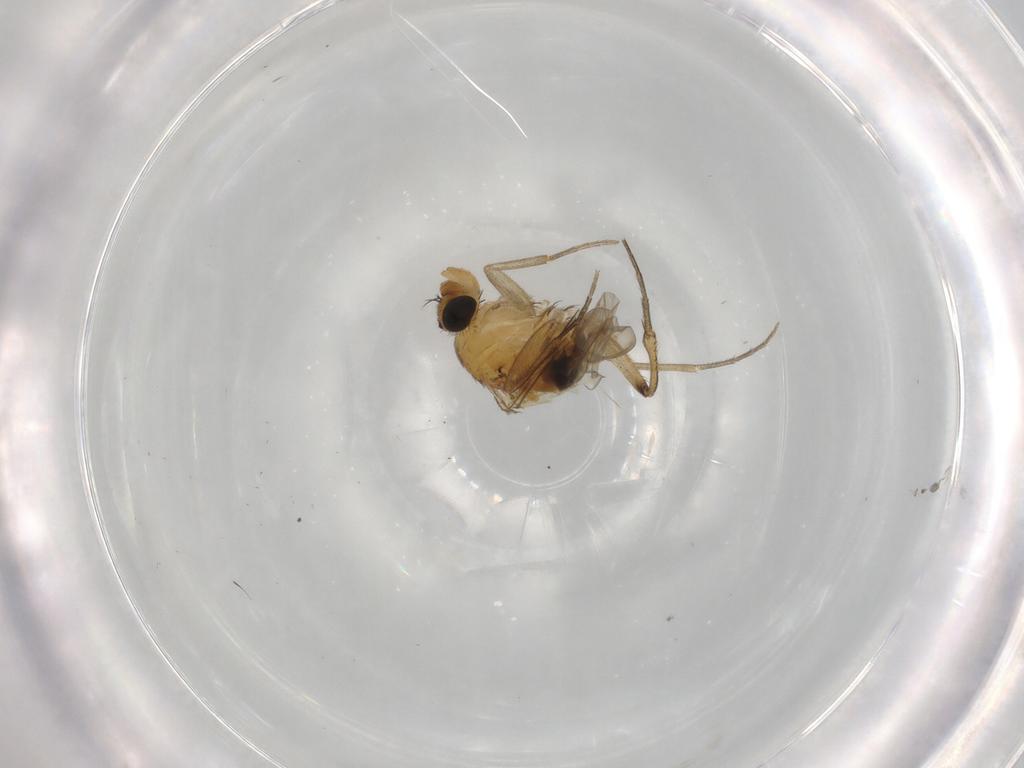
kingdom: Animalia
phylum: Arthropoda
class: Insecta
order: Diptera
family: Phoridae
